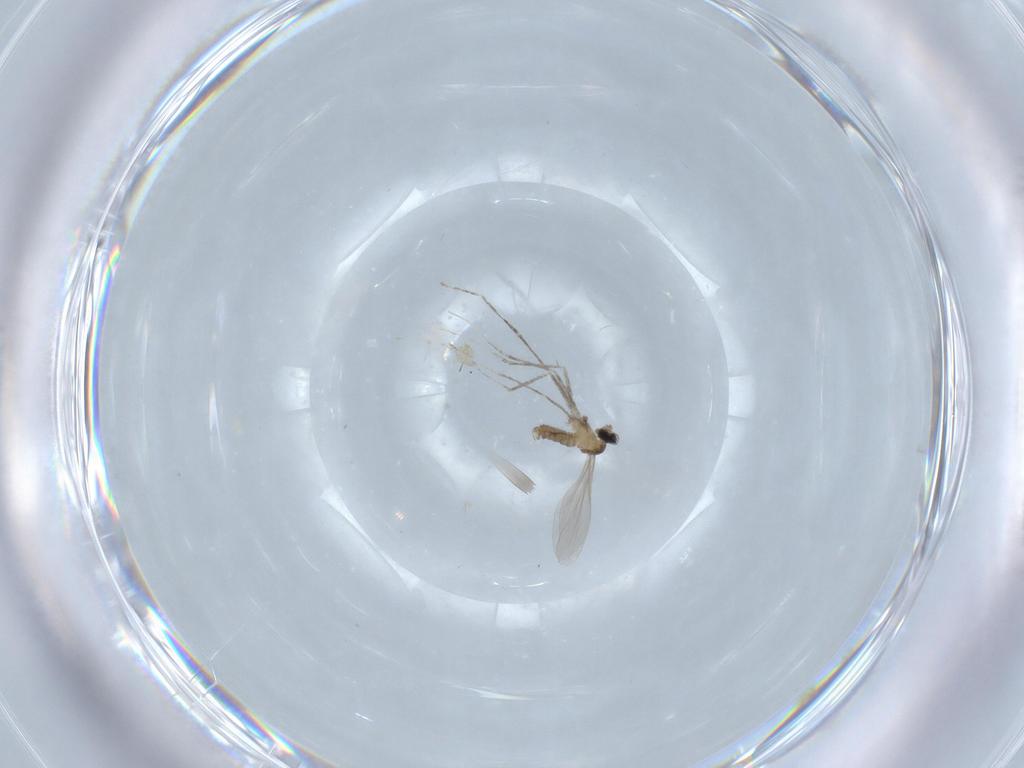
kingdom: Animalia
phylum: Arthropoda
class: Insecta
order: Diptera
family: Cecidomyiidae
